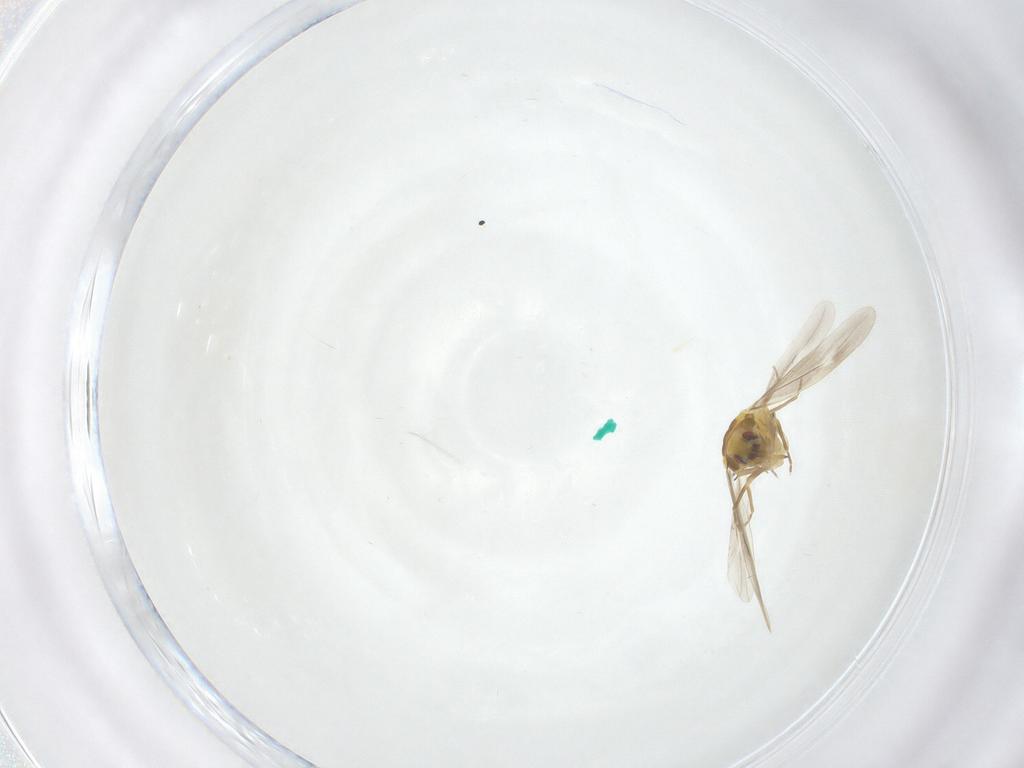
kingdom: Animalia
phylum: Arthropoda
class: Insecta
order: Hemiptera
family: Aleyrodidae
